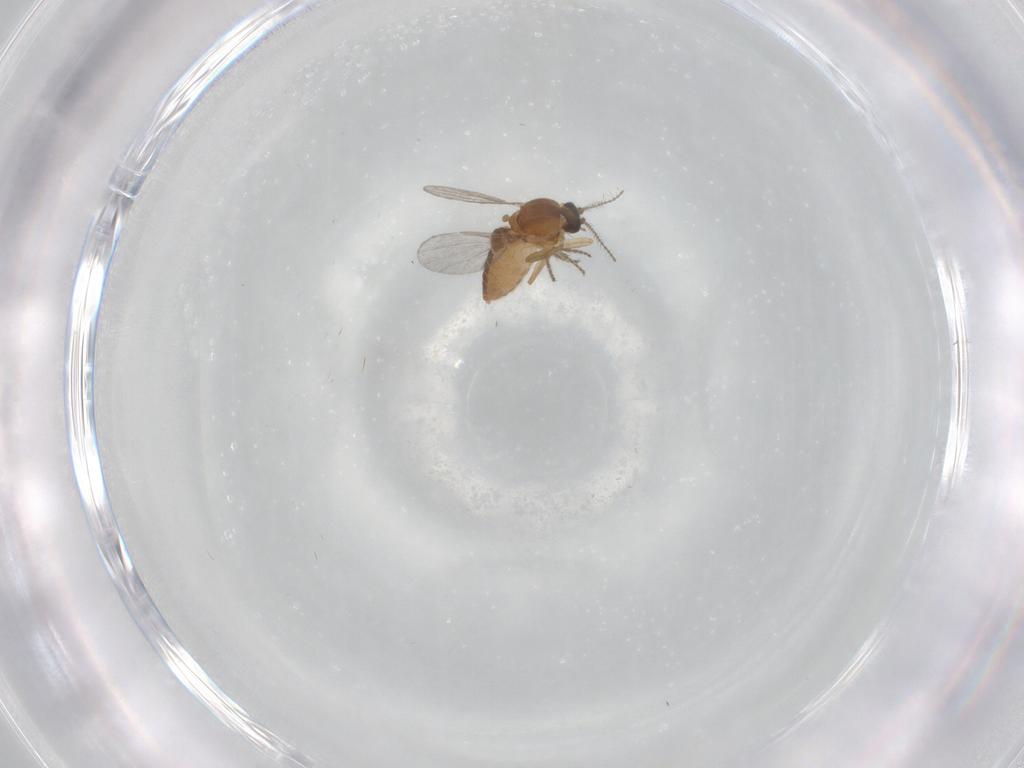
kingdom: Animalia
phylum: Arthropoda
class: Insecta
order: Diptera
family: Ceratopogonidae
